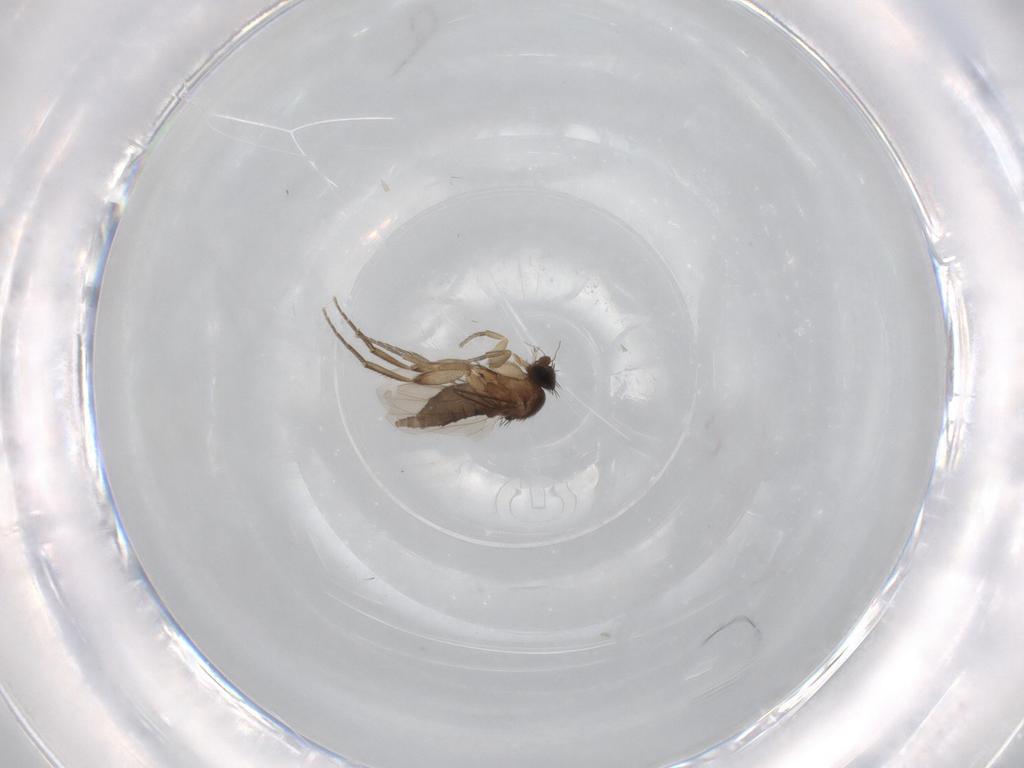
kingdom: Animalia
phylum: Arthropoda
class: Insecta
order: Diptera
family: Phoridae
